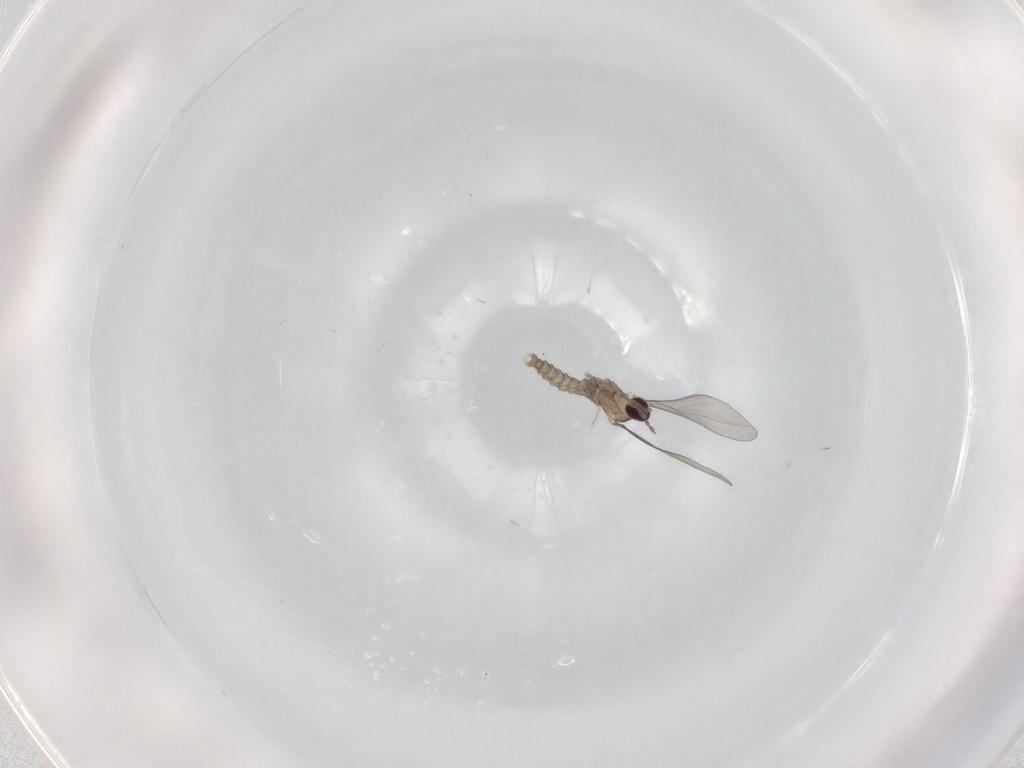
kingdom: Animalia
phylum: Arthropoda
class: Insecta
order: Diptera
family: Cecidomyiidae
